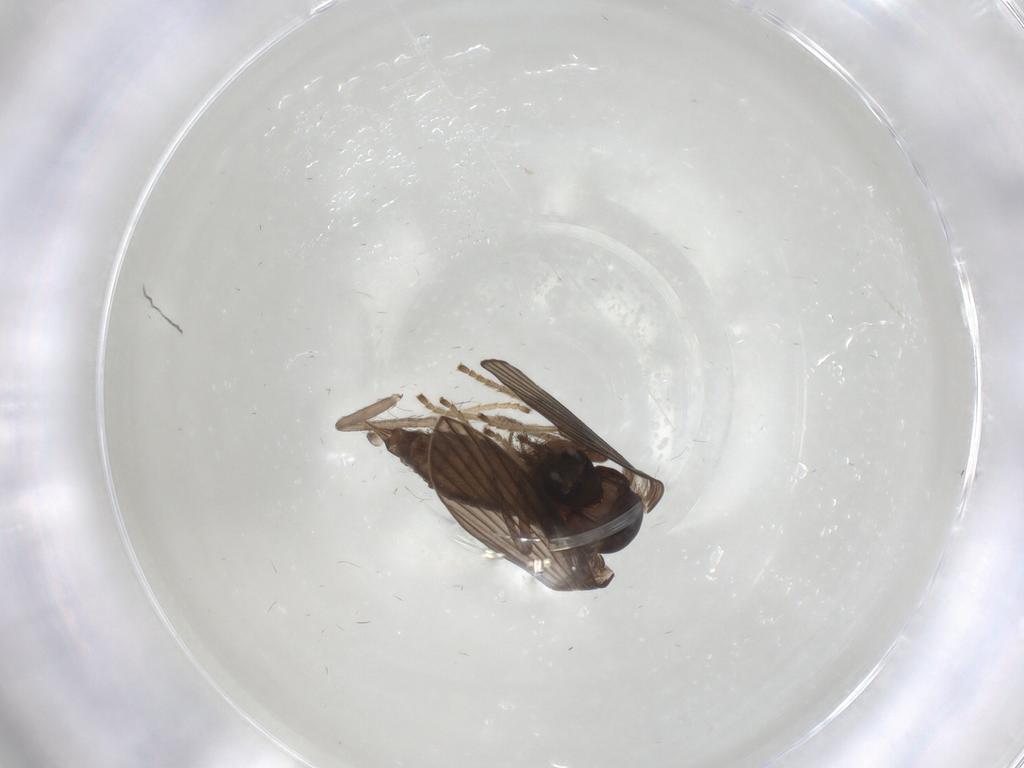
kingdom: Animalia
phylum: Arthropoda
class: Insecta
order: Diptera
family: Psychodidae
